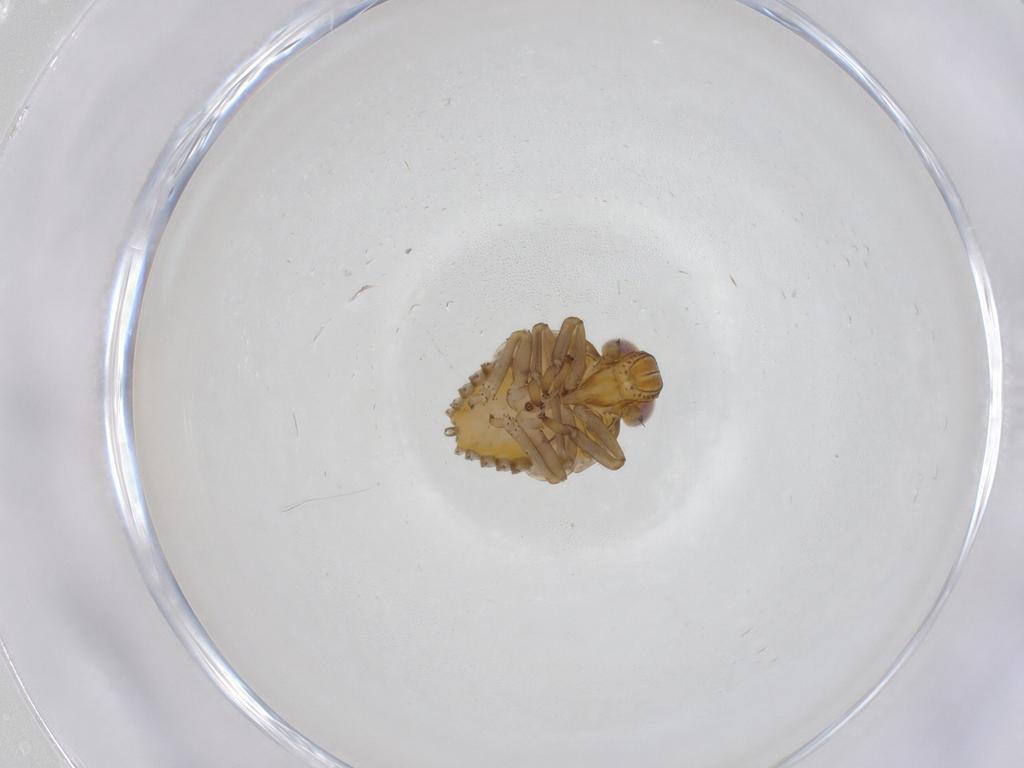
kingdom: Animalia
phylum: Arthropoda
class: Insecta
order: Hemiptera
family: Issidae
